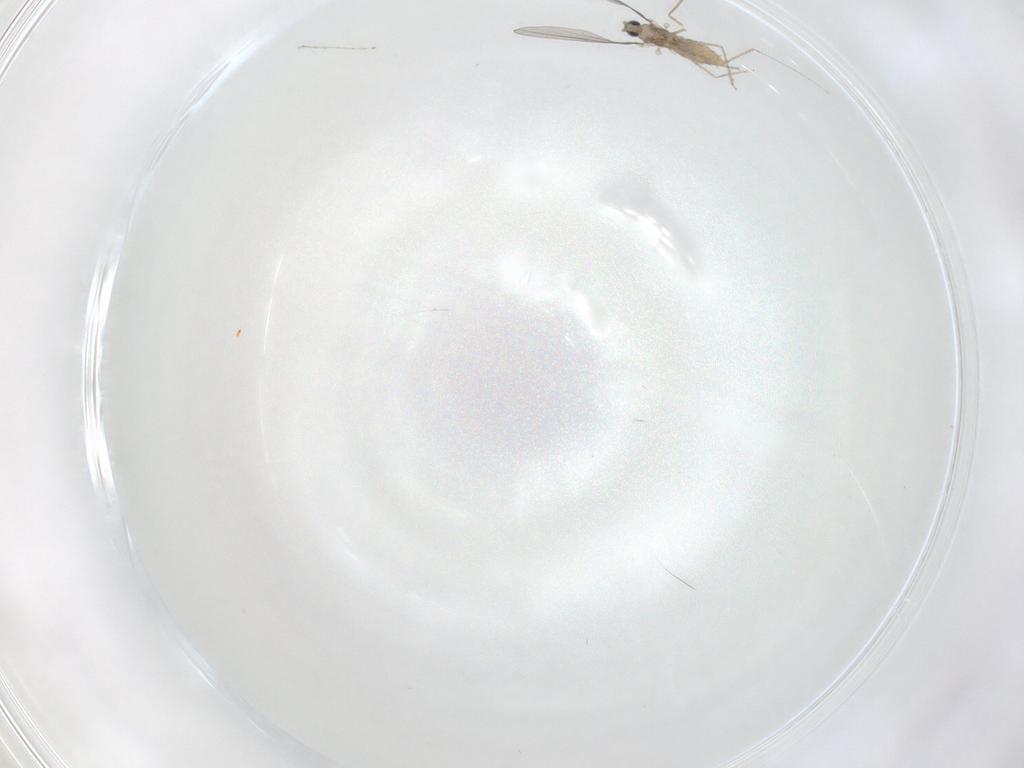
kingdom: Animalia
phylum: Arthropoda
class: Insecta
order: Diptera
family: Cecidomyiidae
